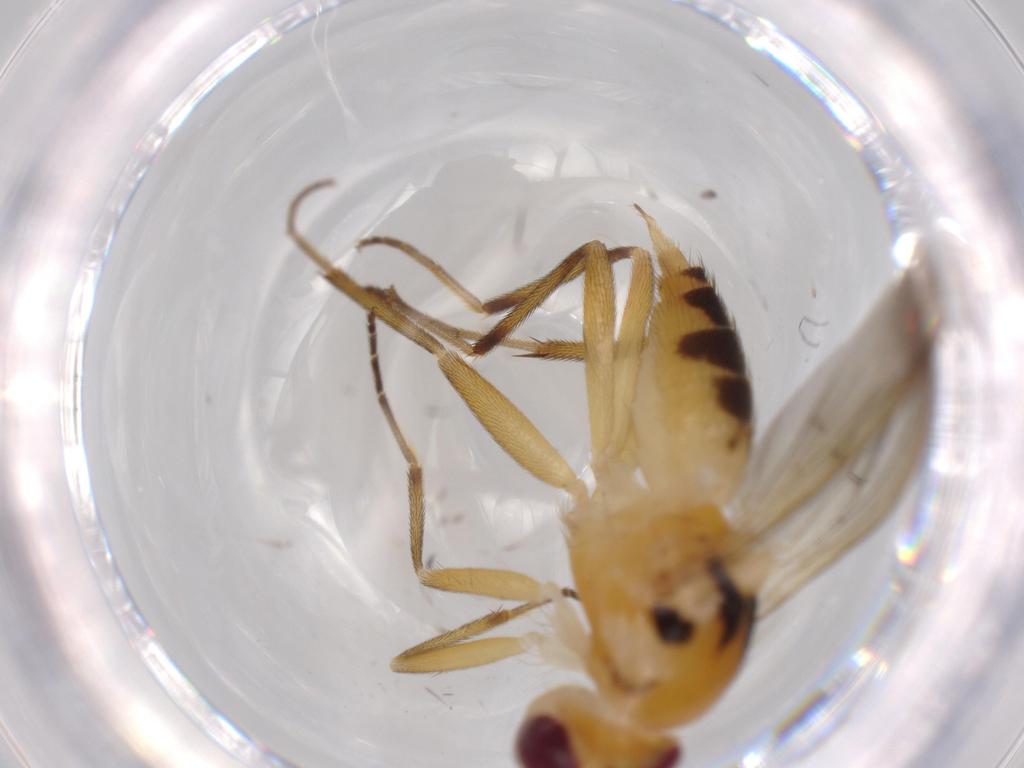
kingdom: Animalia
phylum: Arthropoda
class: Insecta
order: Diptera
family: Clusiidae
